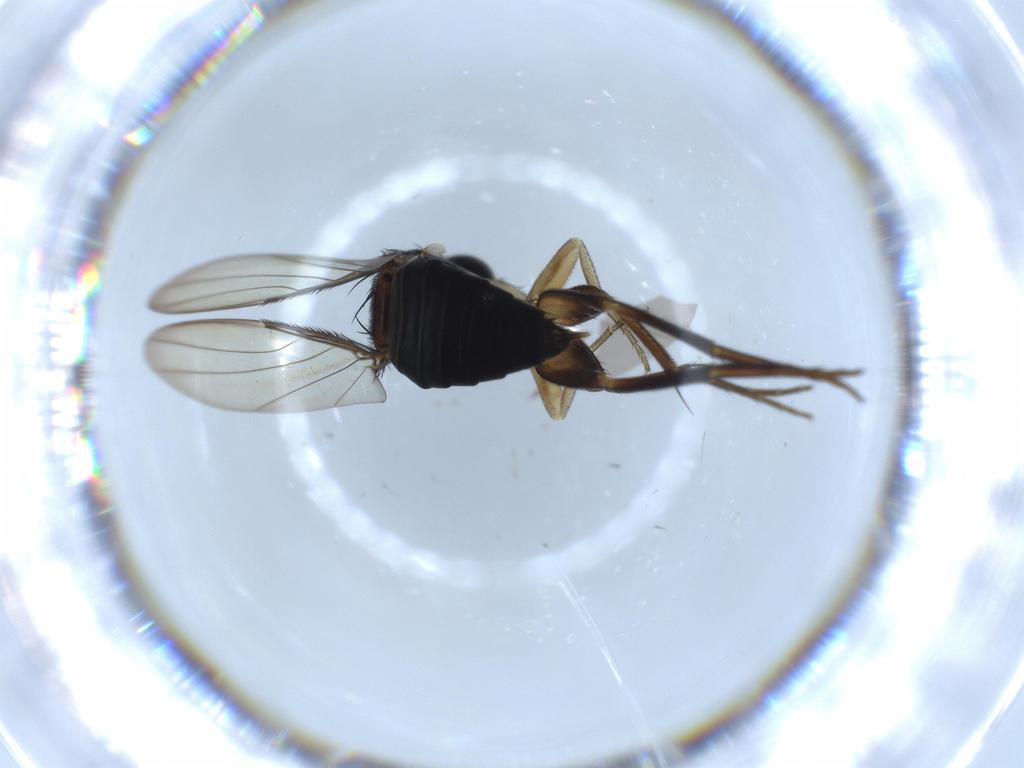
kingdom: Animalia
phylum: Arthropoda
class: Insecta
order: Diptera
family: Phoridae
